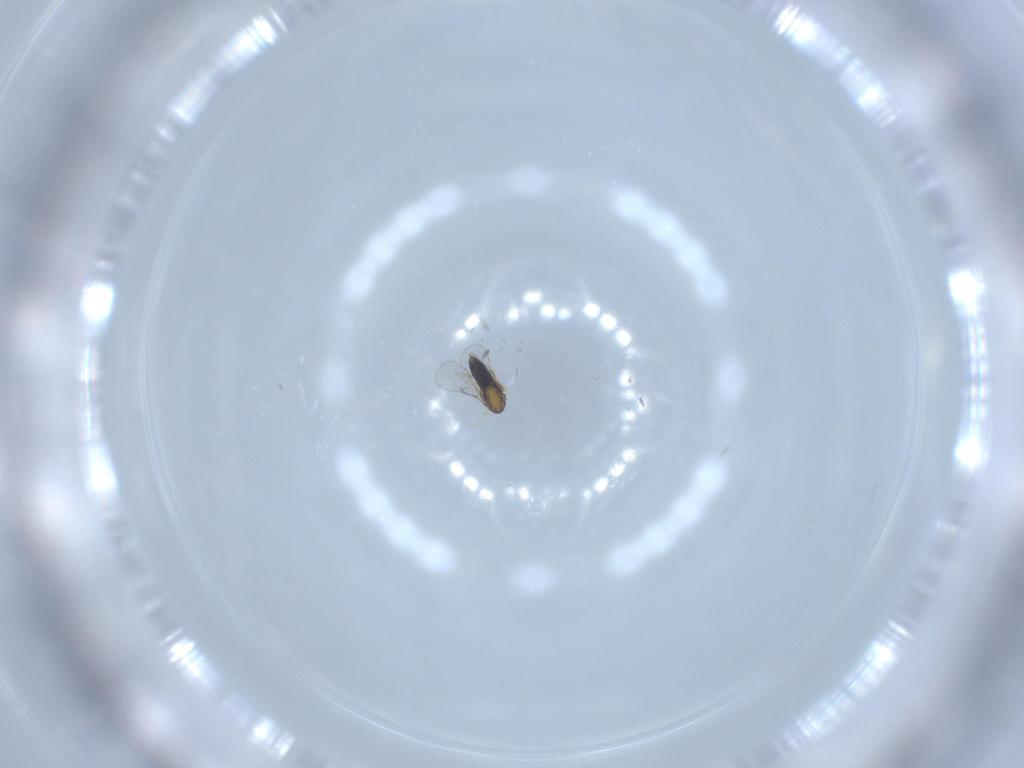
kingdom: Animalia
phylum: Arthropoda
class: Insecta
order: Hymenoptera
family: Trichogrammatidae
